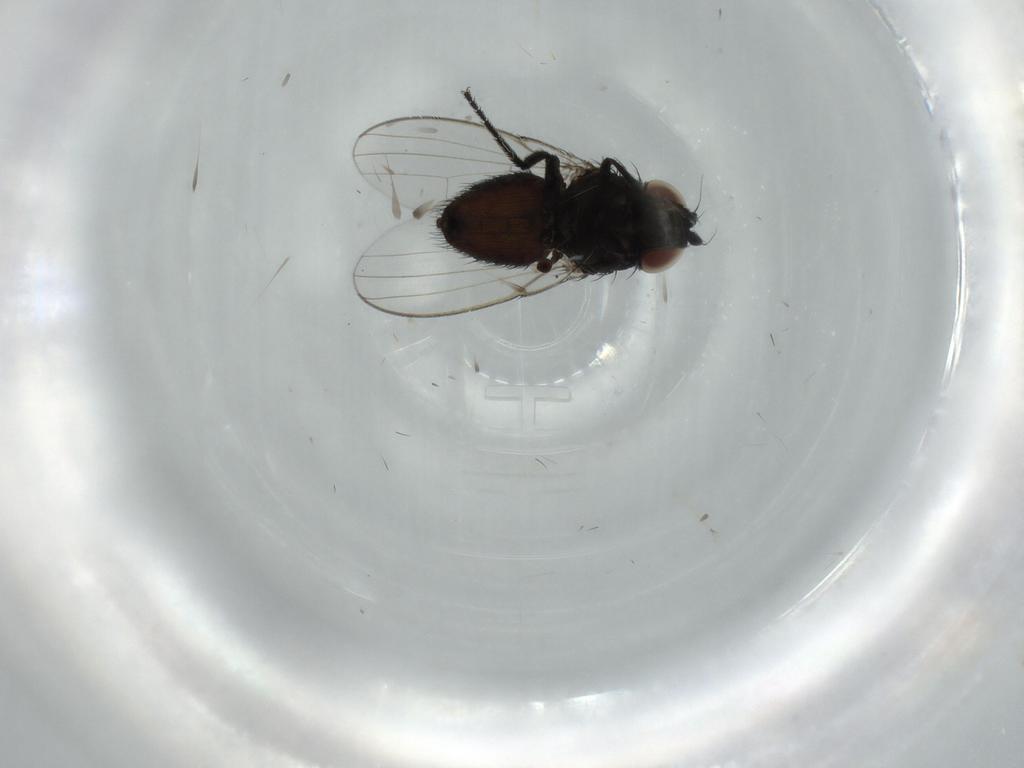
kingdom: Animalia
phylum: Arthropoda
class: Insecta
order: Diptera
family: Milichiidae
